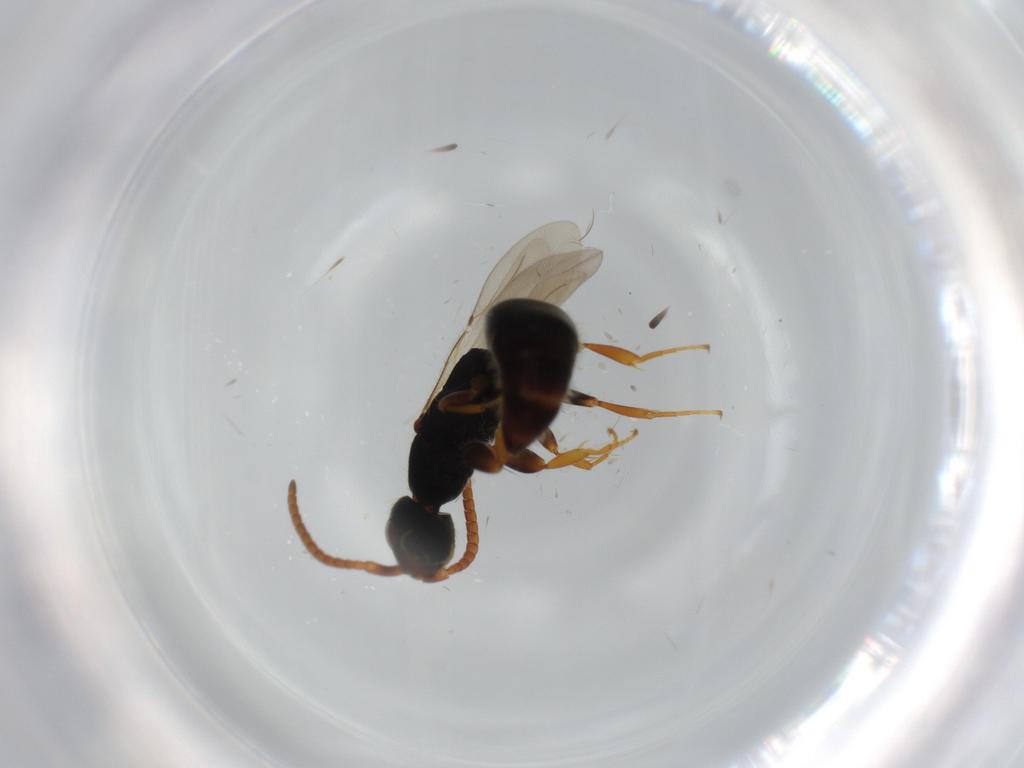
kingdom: Animalia
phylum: Arthropoda
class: Insecta
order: Hymenoptera
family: Bethylidae
